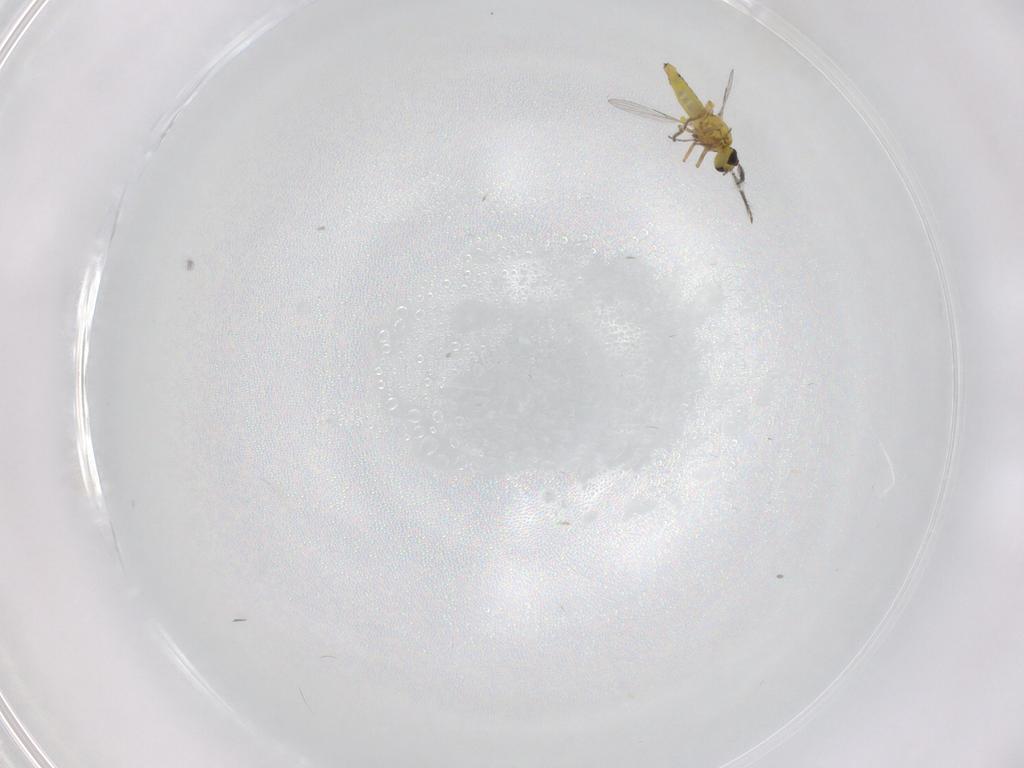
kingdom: Animalia
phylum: Arthropoda
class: Insecta
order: Diptera
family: Ceratopogonidae
